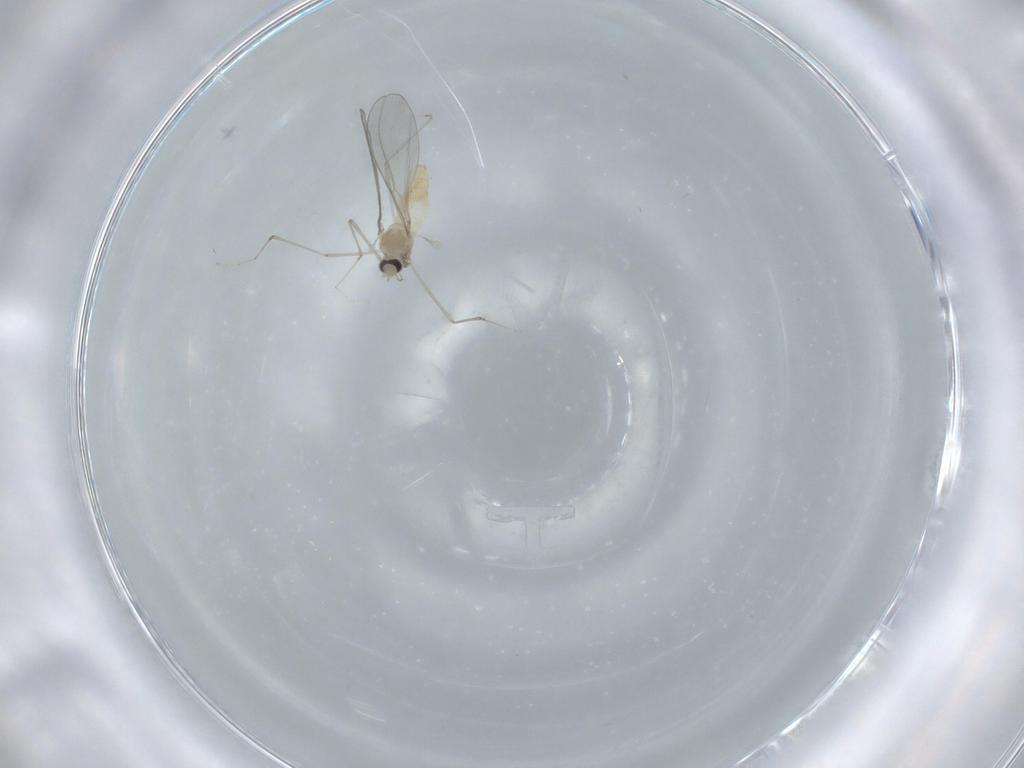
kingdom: Animalia
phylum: Arthropoda
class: Insecta
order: Diptera
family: Cecidomyiidae
